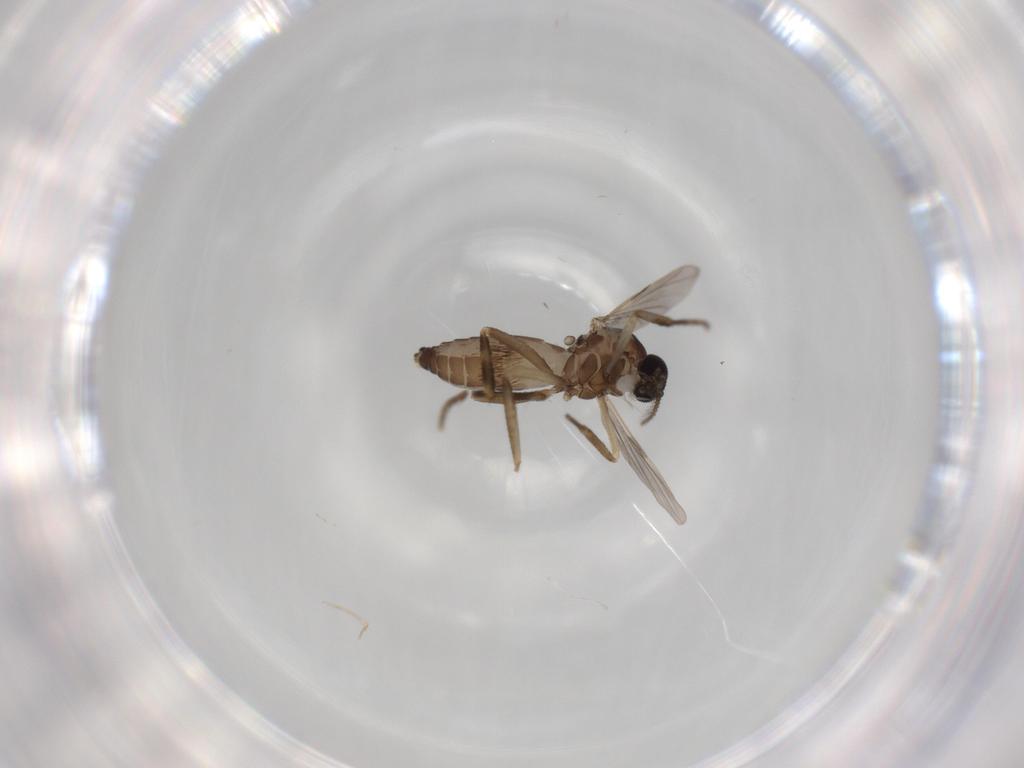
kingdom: Animalia
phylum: Arthropoda
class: Insecta
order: Diptera
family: Ceratopogonidae
